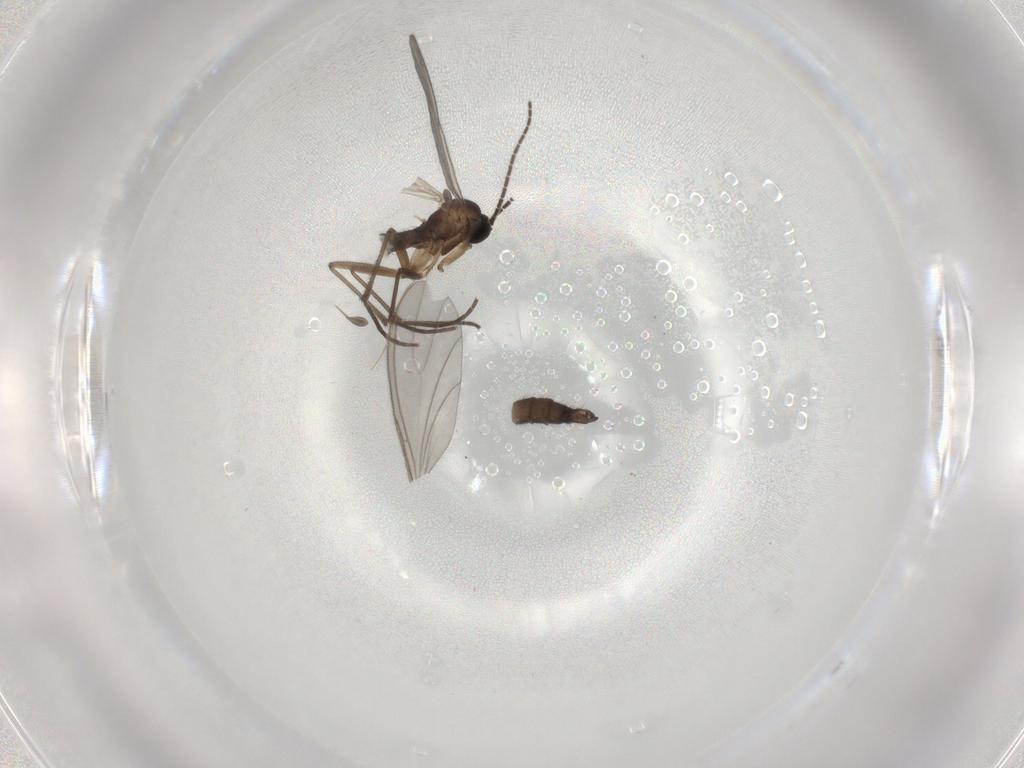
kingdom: Animalia
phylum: Arthropoda
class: Insecta
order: Diptera
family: Sciaridae
